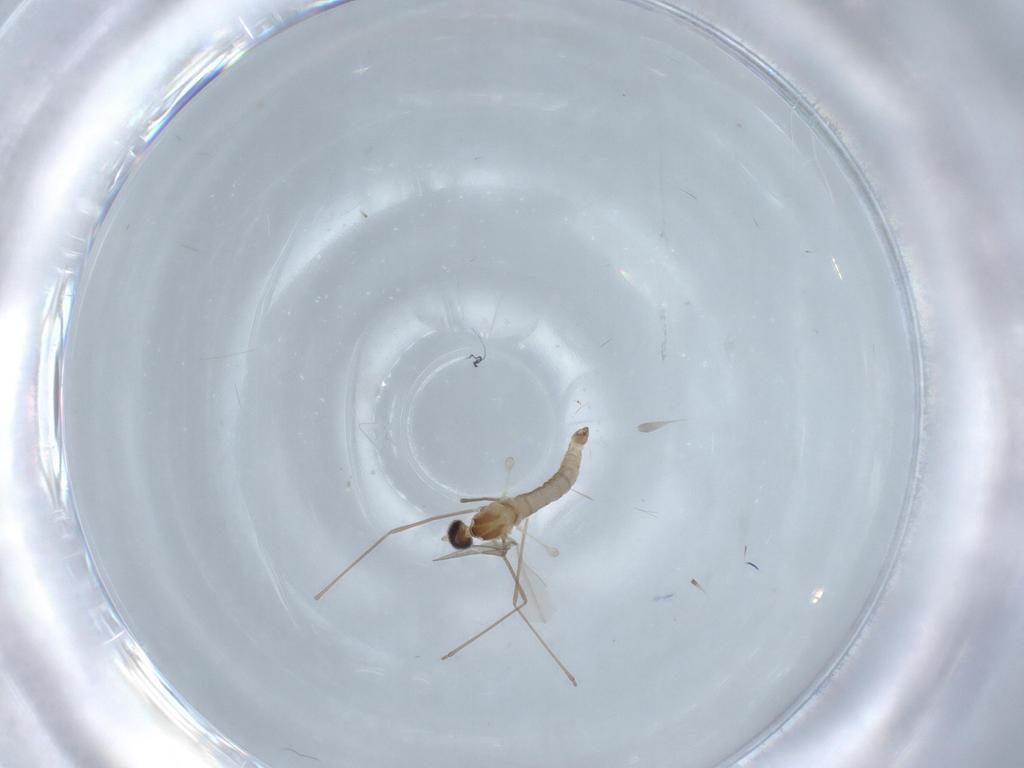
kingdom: Animalia
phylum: Arthropoda
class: Insecta
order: Diptera
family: Cecidomyiidae
